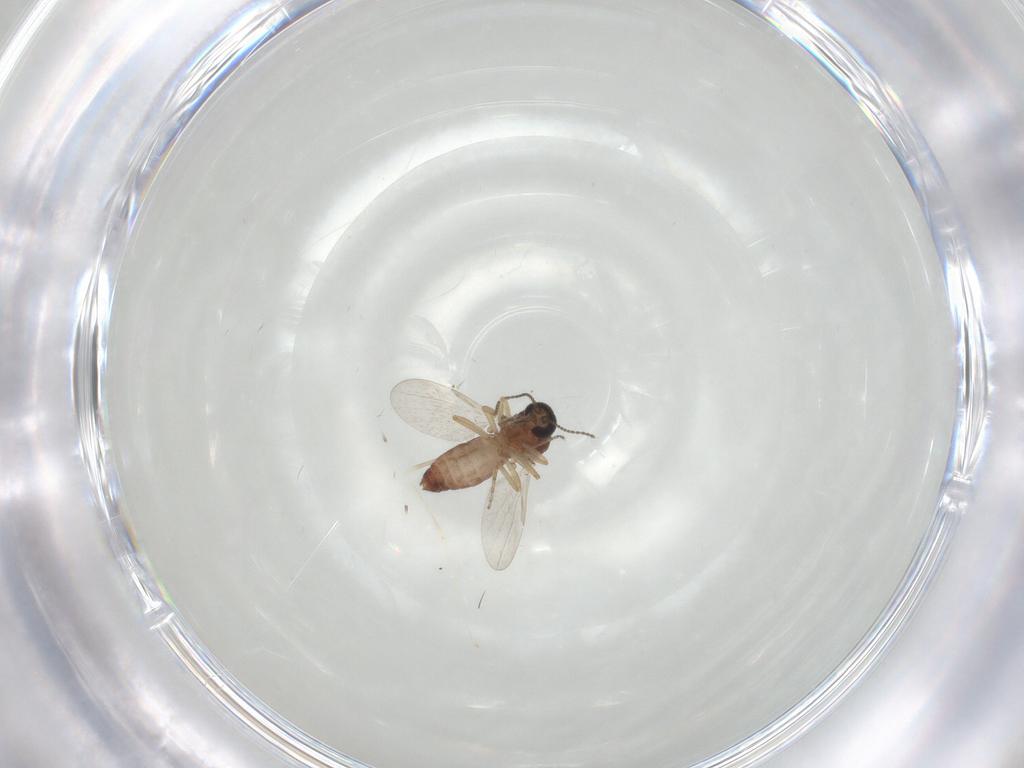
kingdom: Animalia
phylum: Arthropoda
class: Insecta
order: Diptera
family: Ceratopogonidae
